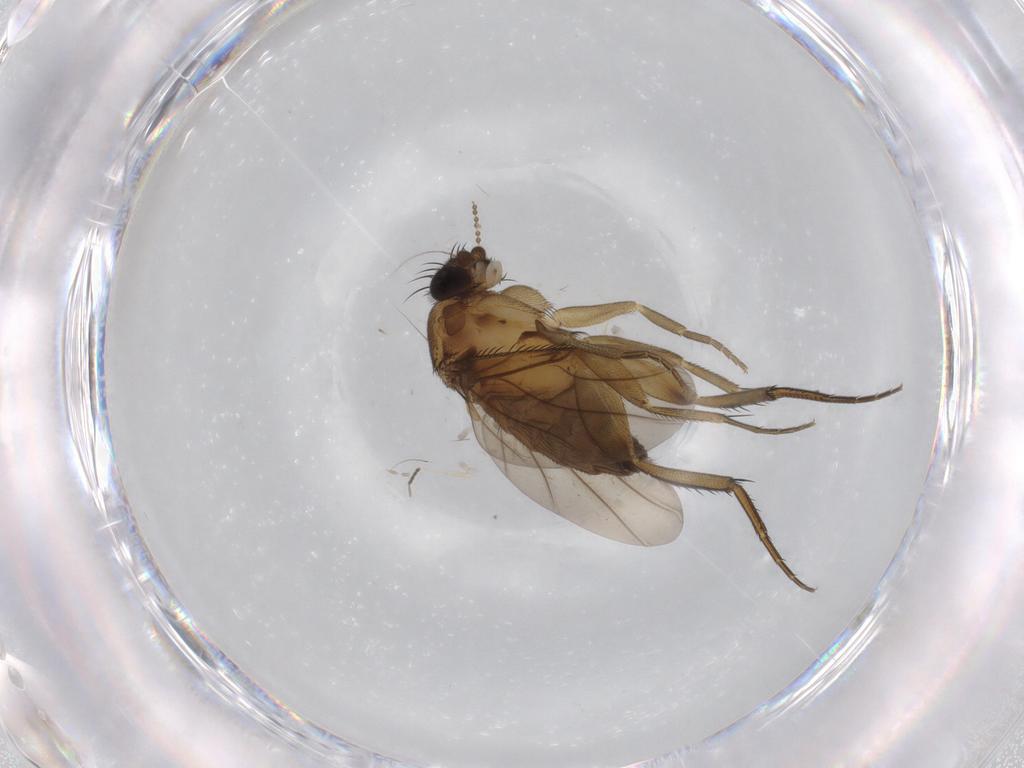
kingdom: Animalia
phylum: Arthropoda
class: Insecta
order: Diptera
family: Phoridae
